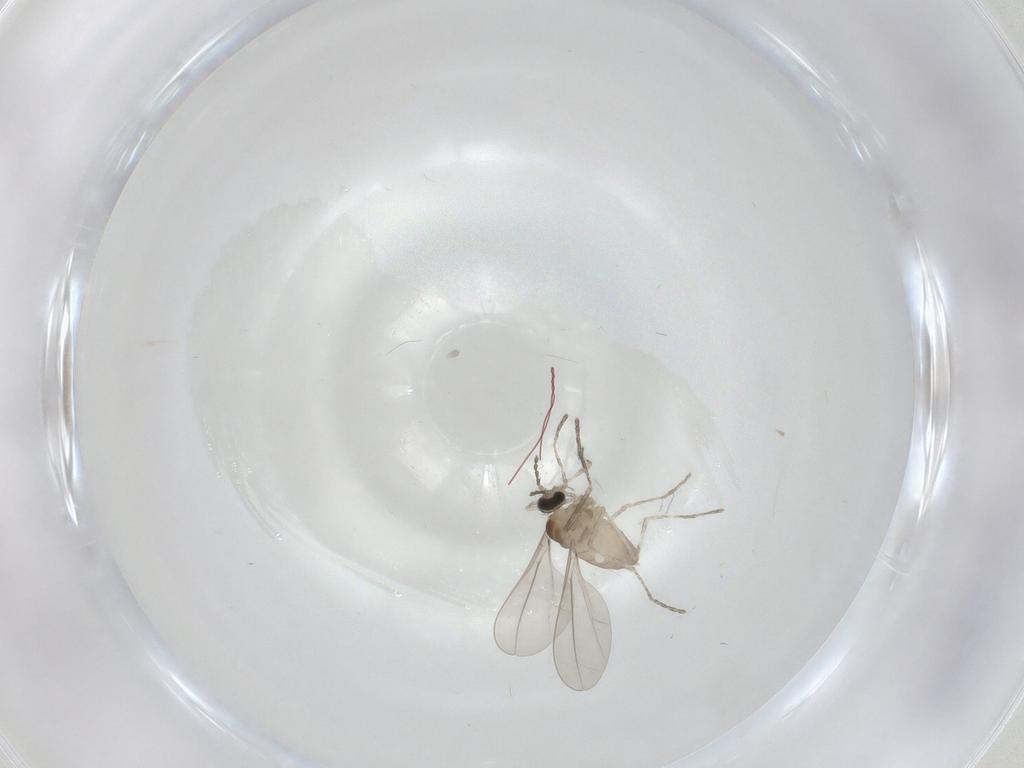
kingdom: Animalia
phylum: Arthropoda
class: Insecta
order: Diptera
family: Cecidomyiidae
